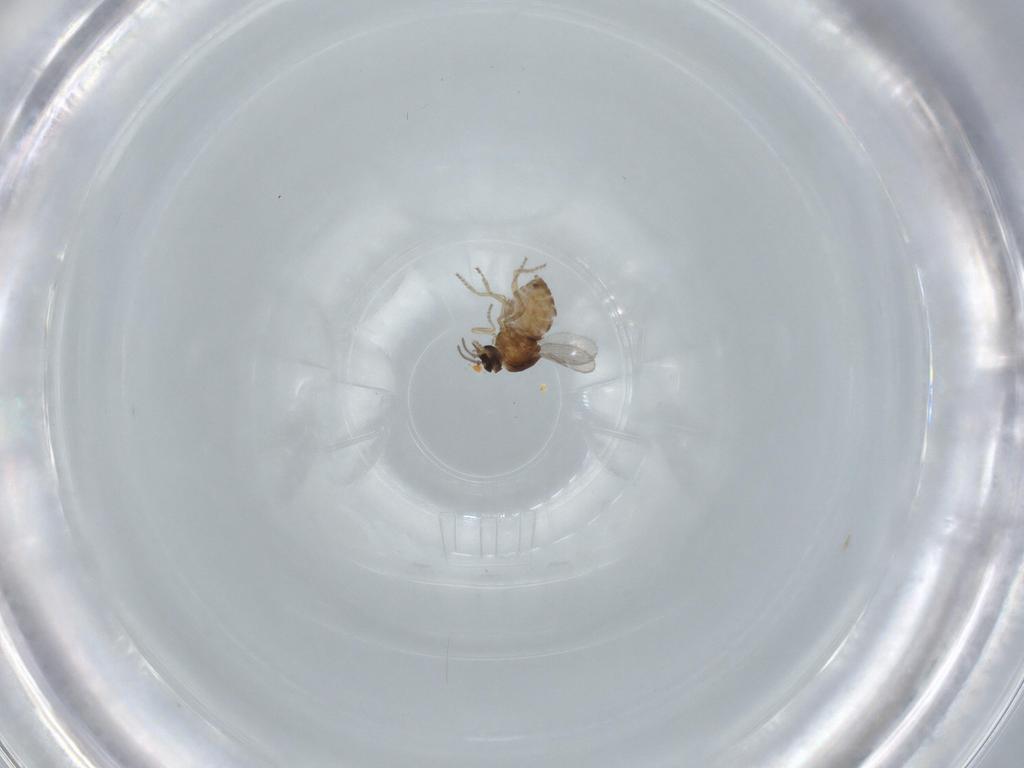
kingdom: Animalia
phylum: Arthropoda
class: Insecta
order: Diptera
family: Ceratopogonidae
